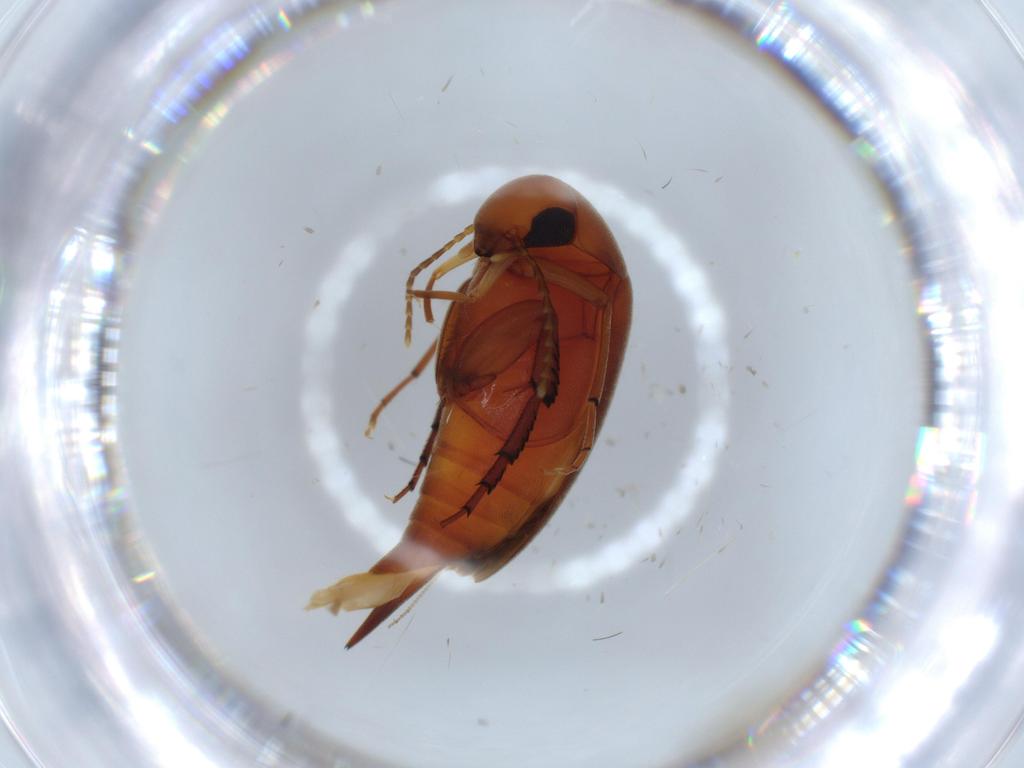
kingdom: Animalia
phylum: Arthropoda
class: Insecta
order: Coleoptera
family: Mordellidae
